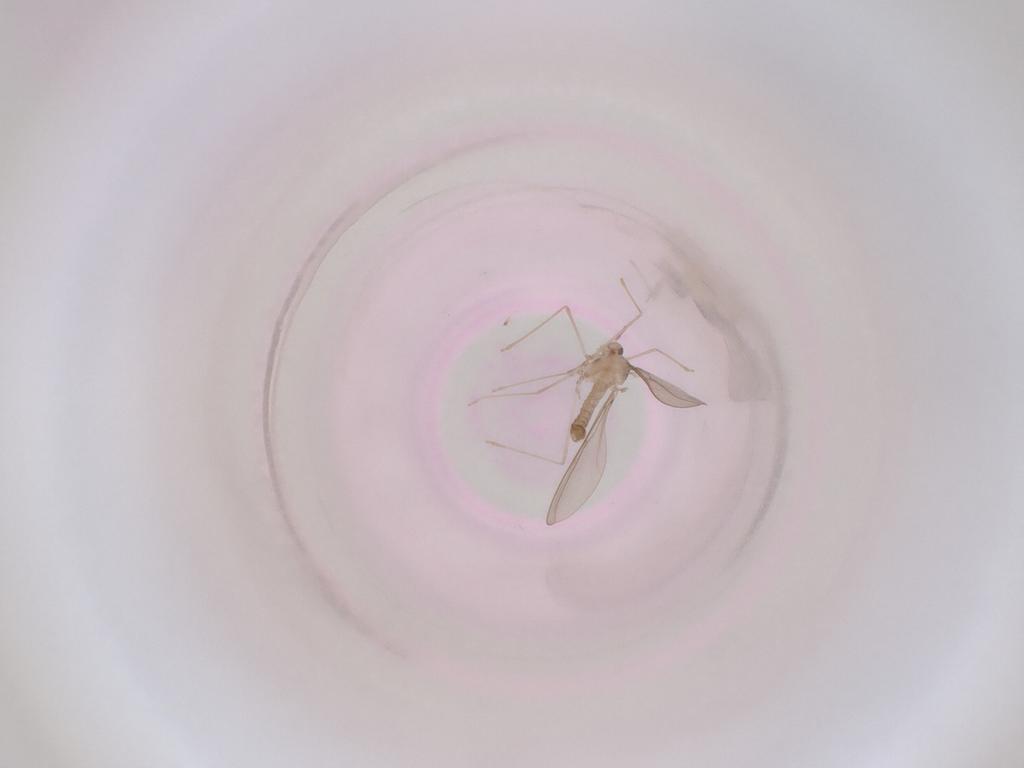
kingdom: Animalia
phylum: Arthropoda
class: Insecta
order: Diptera
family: Cecidomyiidae
